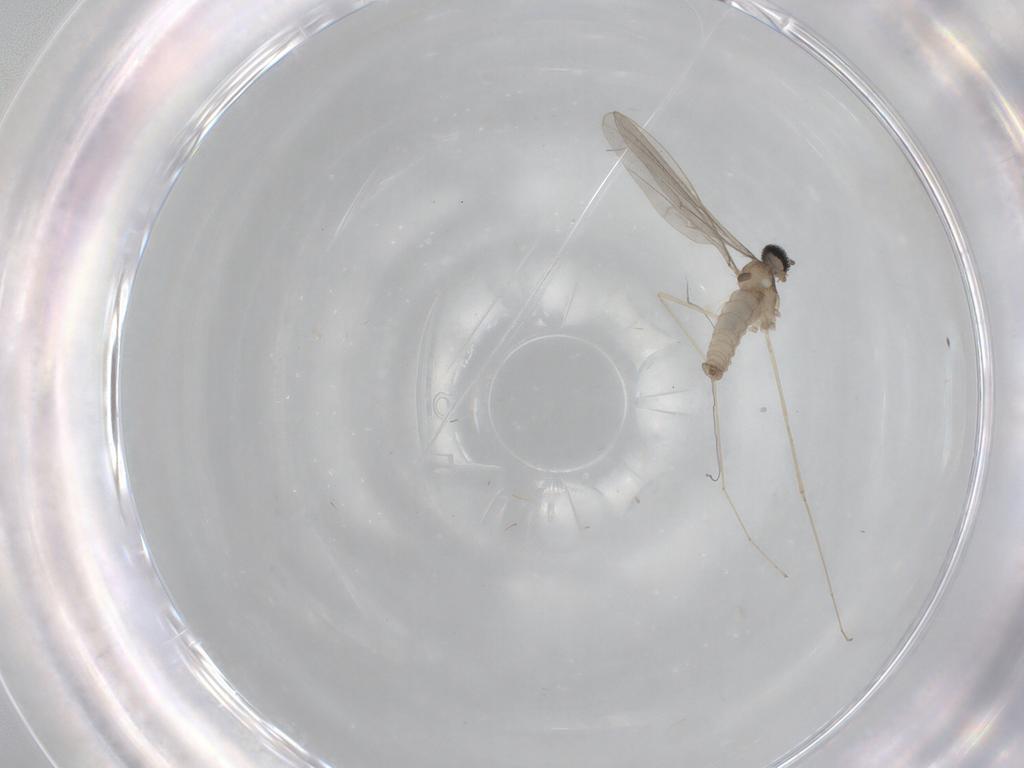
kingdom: Animalia
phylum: Arthropoda
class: Insecta
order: Diptera
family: Cecidomyiidae
